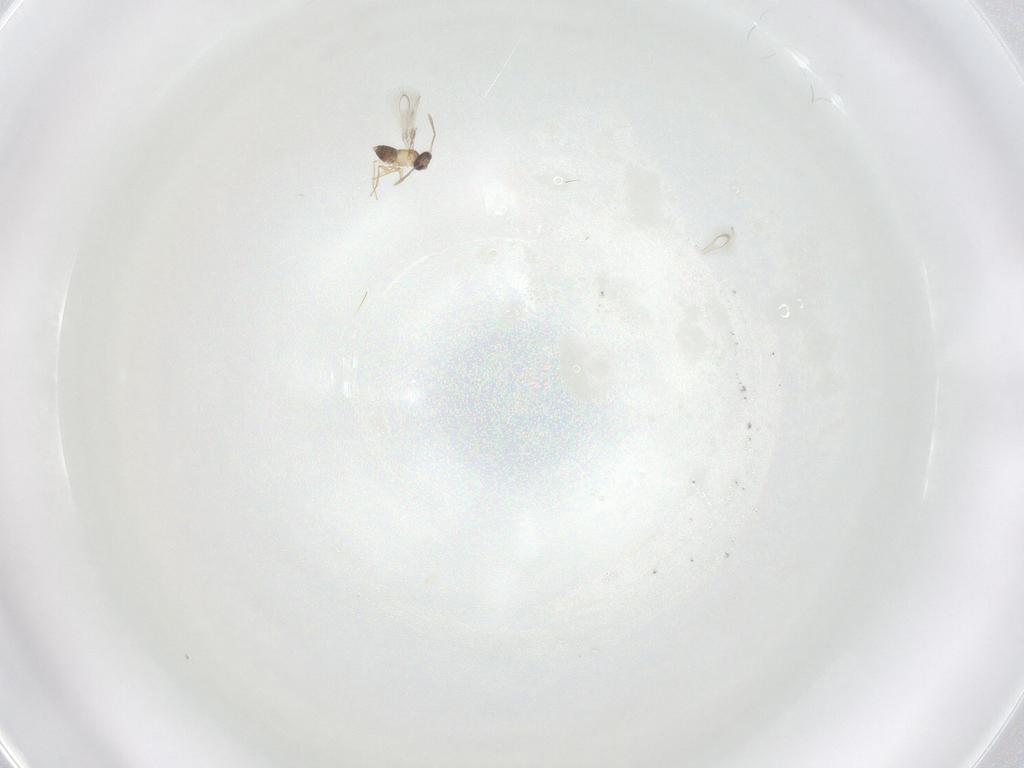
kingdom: Animalia
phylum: Arthropoda
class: Insecta
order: Hymenoptera
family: Mymaridae
